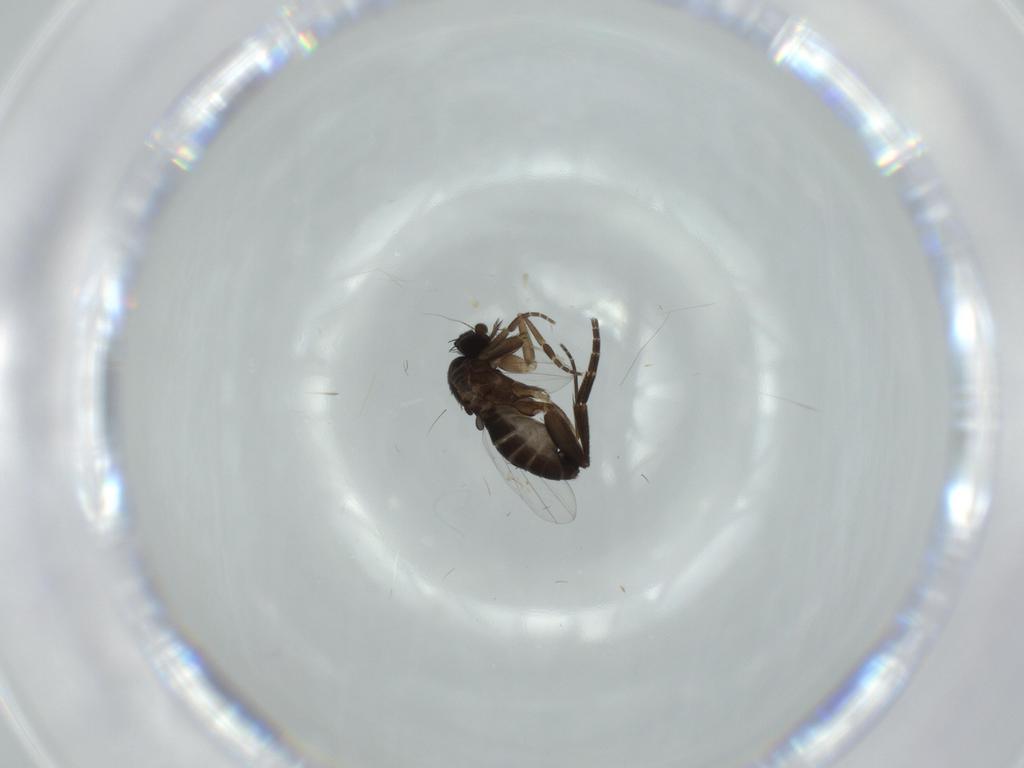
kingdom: Animalia
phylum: Arthropoda
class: Insecta
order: Diptera
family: Phoridae
